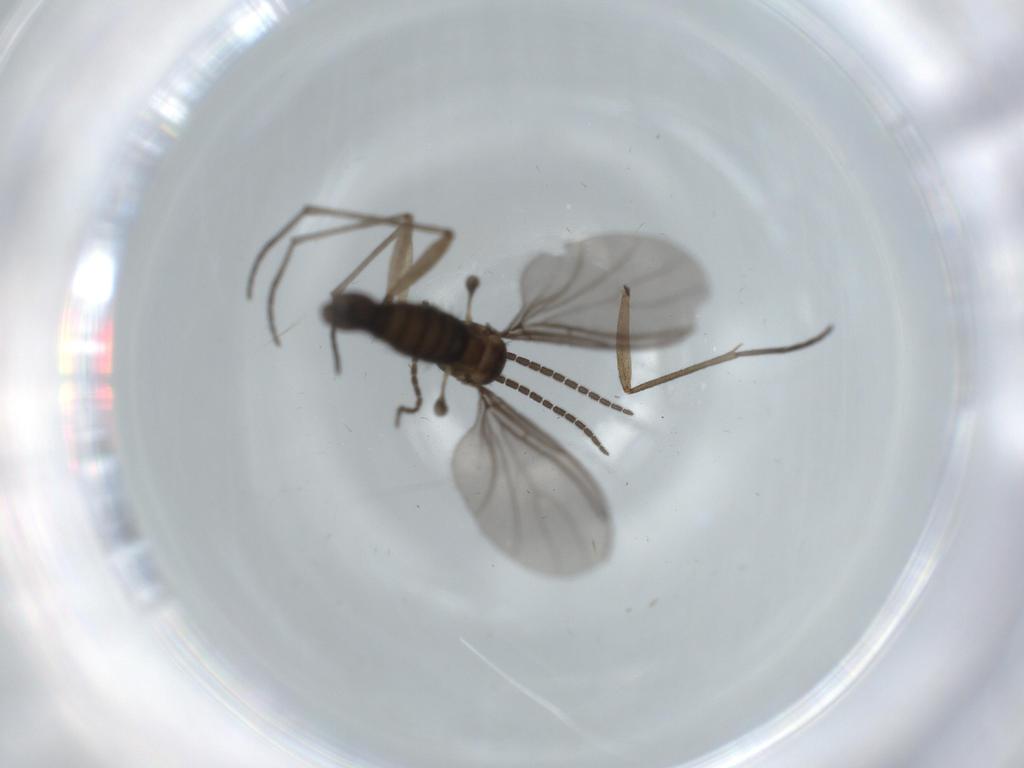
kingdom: Animalia
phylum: Arthropoda
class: Insecta
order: Diptera
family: Sciaridae
